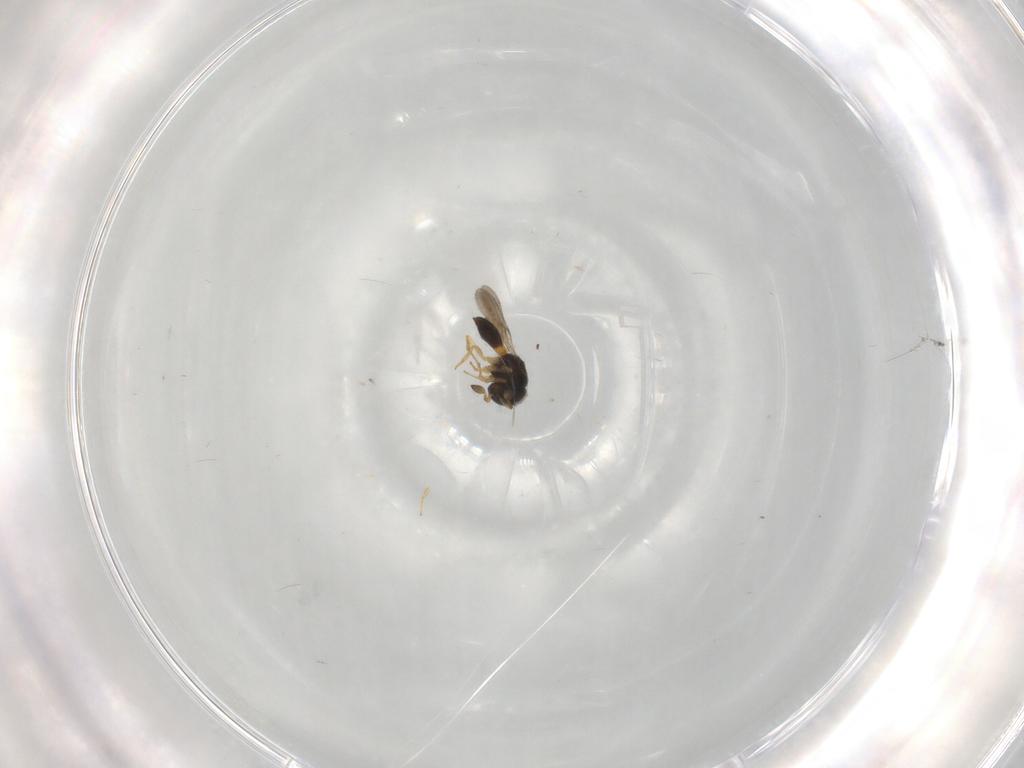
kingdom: Animalia
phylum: Arthropoda
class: Insecta
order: Hymenoptera
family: Scelionidae
